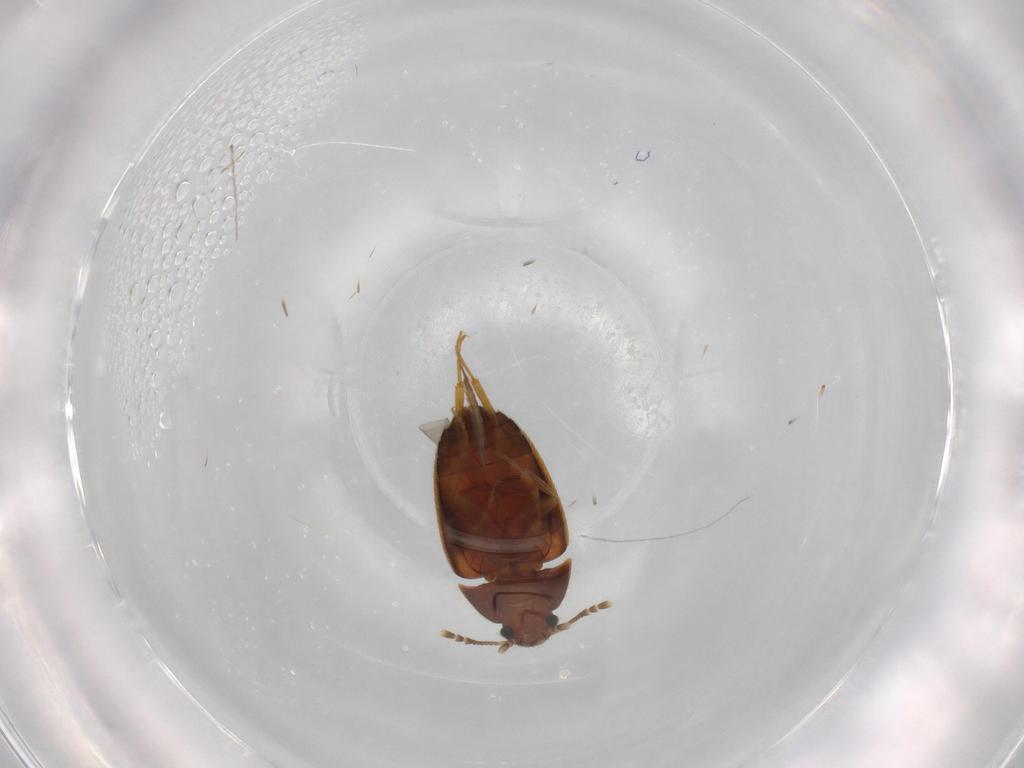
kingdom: Animalia
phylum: Arthropoda
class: Insecta
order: Coleoptera
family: Mycetophagidae
